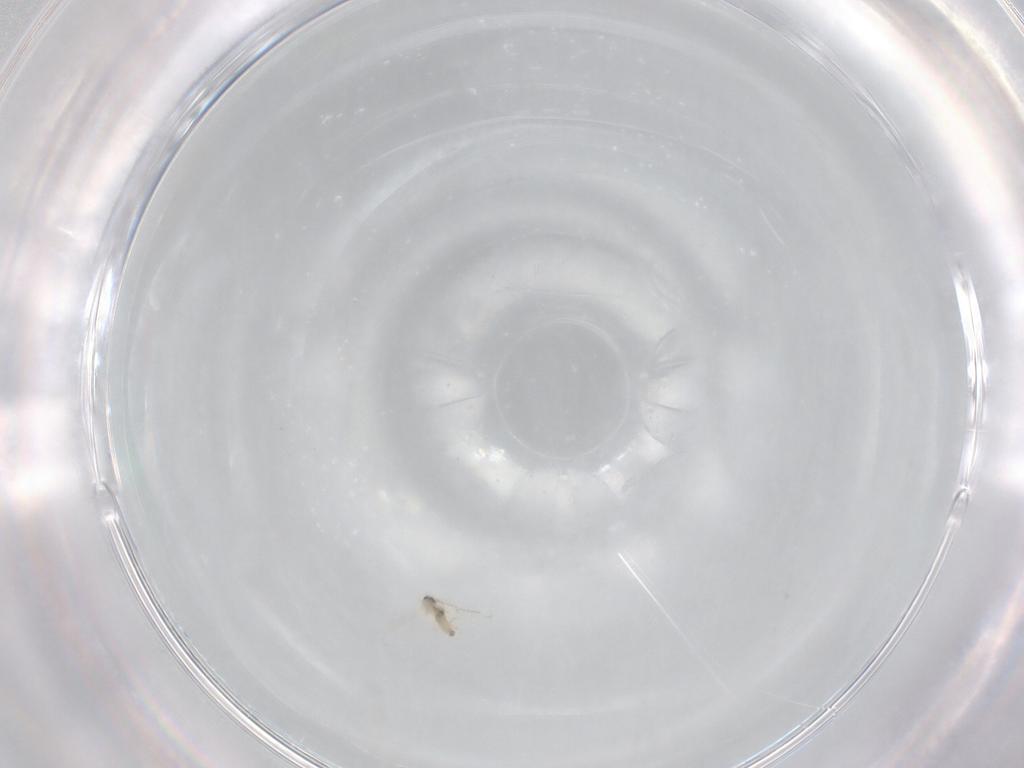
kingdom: Animalia
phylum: Arthropoda
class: Insecta
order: Diptera
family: Cecidomyiidae
